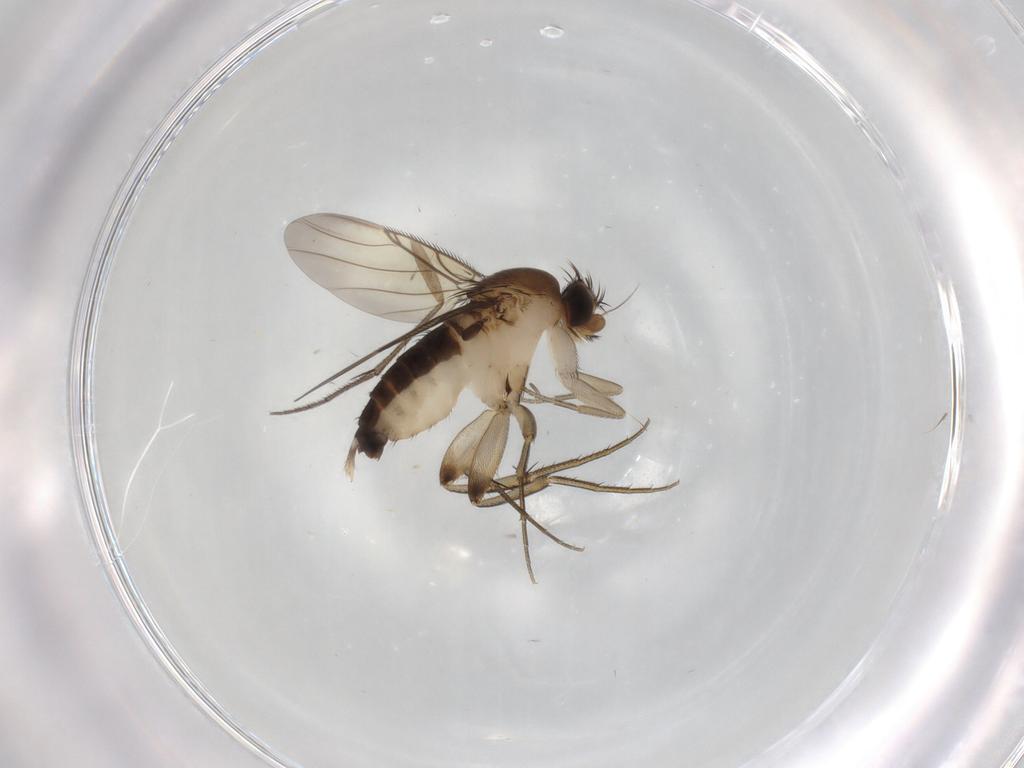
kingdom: Animalia
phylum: Arthropoda
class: Insecta
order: Diptera
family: Phoridae
